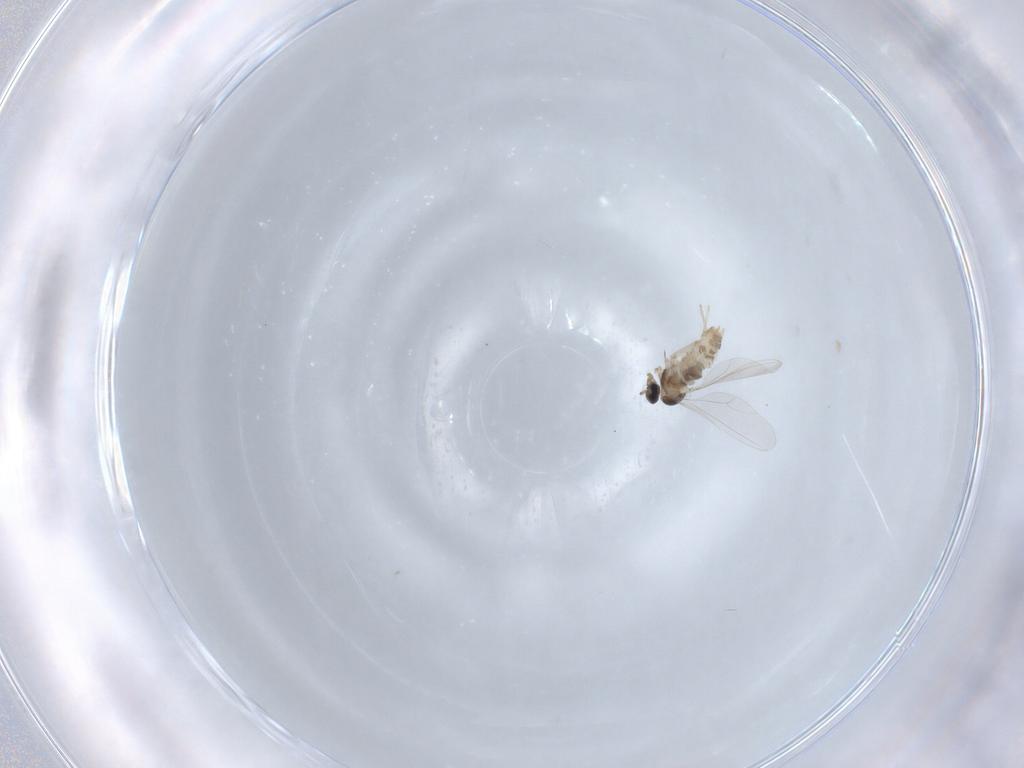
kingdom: Animalia
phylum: Arthropoda
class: Insecta
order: Diptera
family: Cecidomyiidae
